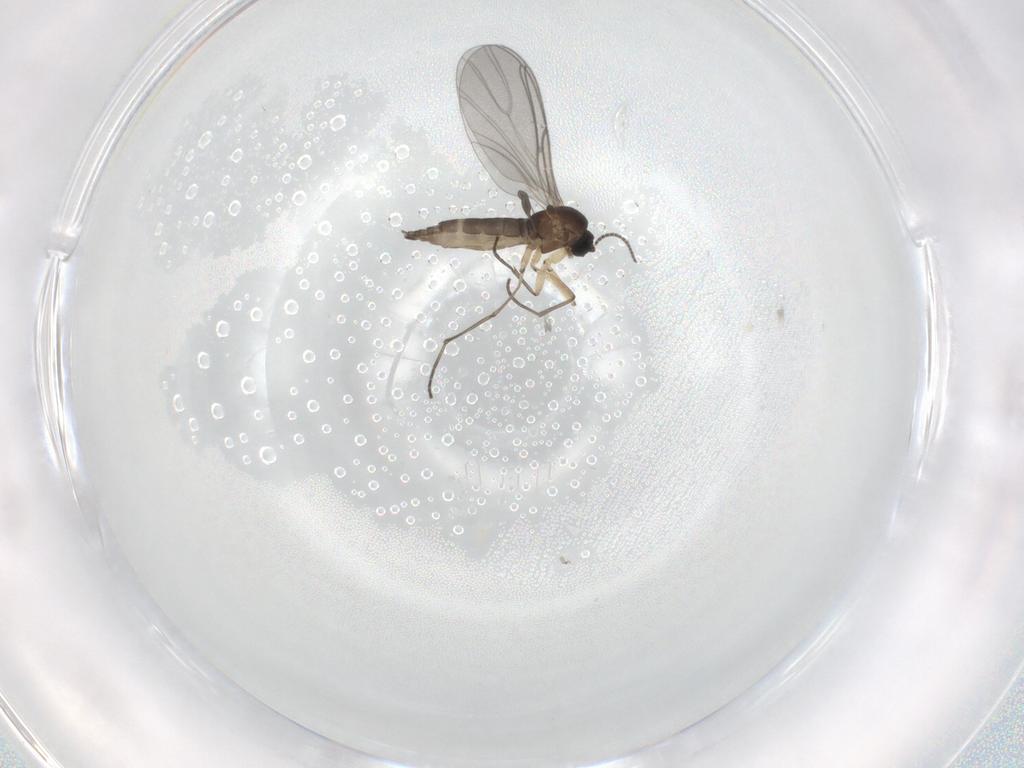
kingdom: Animalia
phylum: Arthropoda
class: Insecta
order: Diptera
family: Sciaridae
